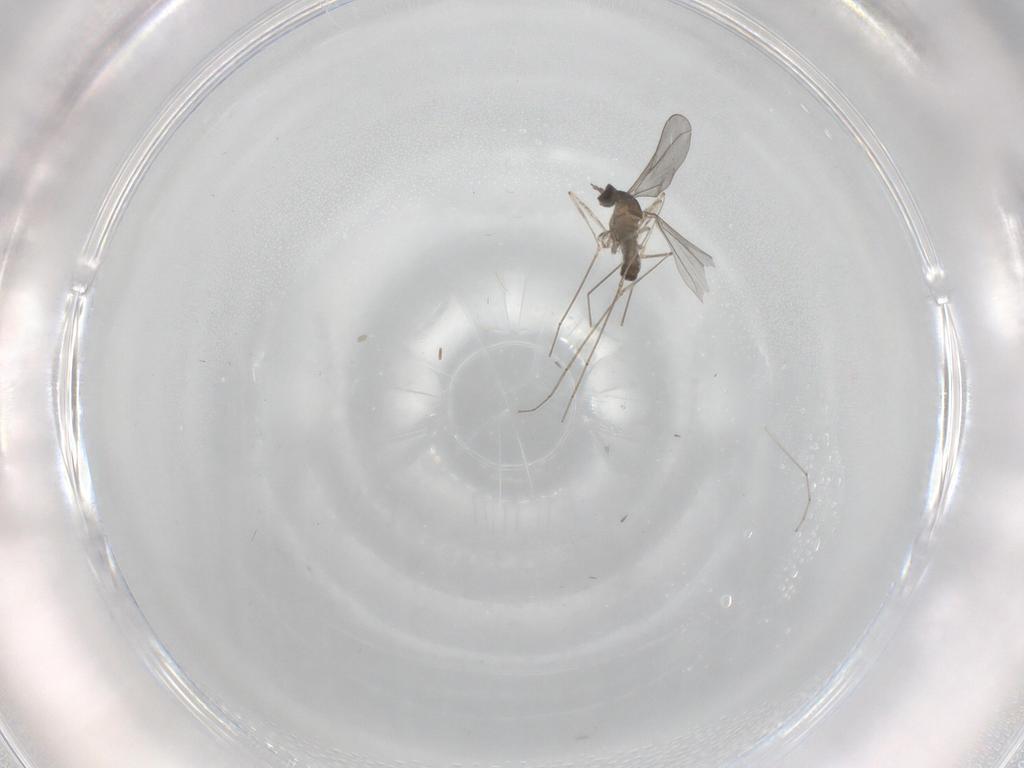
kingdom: Animalia
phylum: Arthropoda
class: Insecta
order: Diptera
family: Cecidomyiidae
